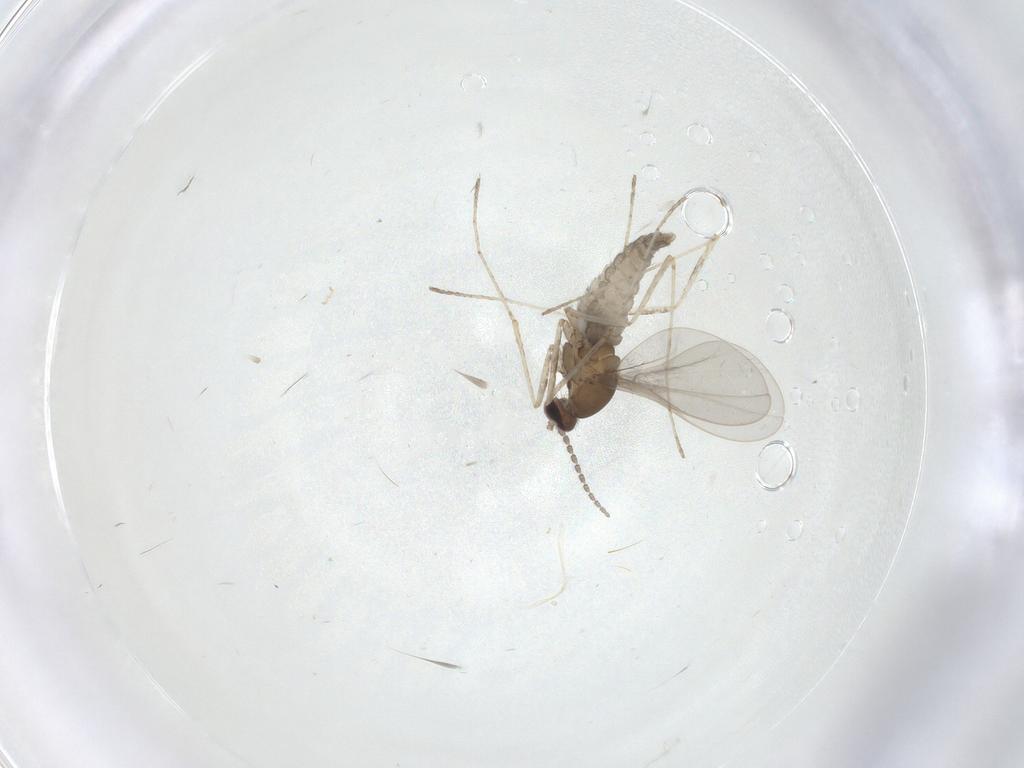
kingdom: Animalia
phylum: Arthropoda
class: Insecta
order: Diptera
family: Cecidomyiidae
